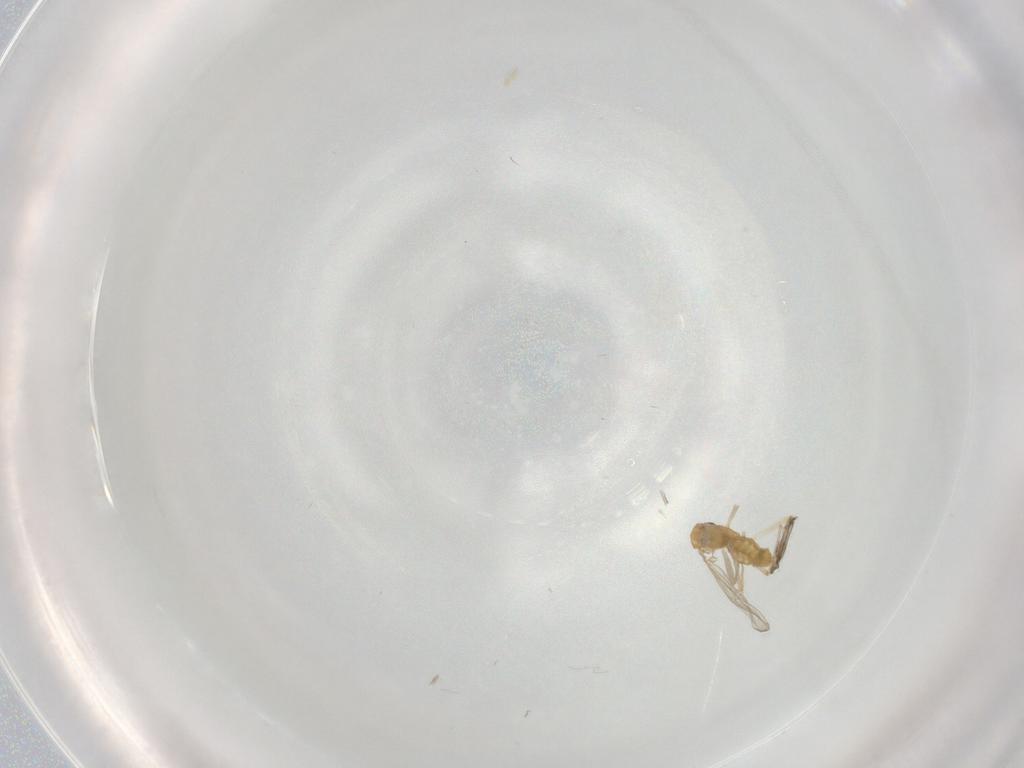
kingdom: Animalia
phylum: Arthropoda
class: Insecta
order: Diptera
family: Chironomidae
